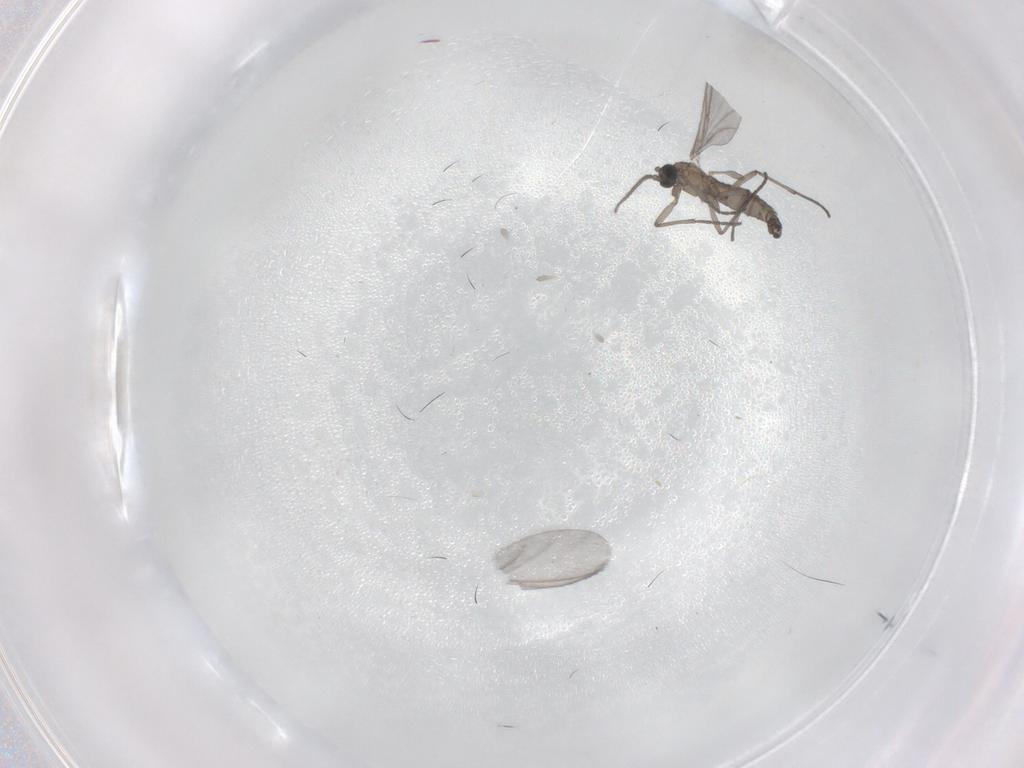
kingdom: Animalia
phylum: Arthropoda
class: Insecta
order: Diptera
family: Sciaridae
